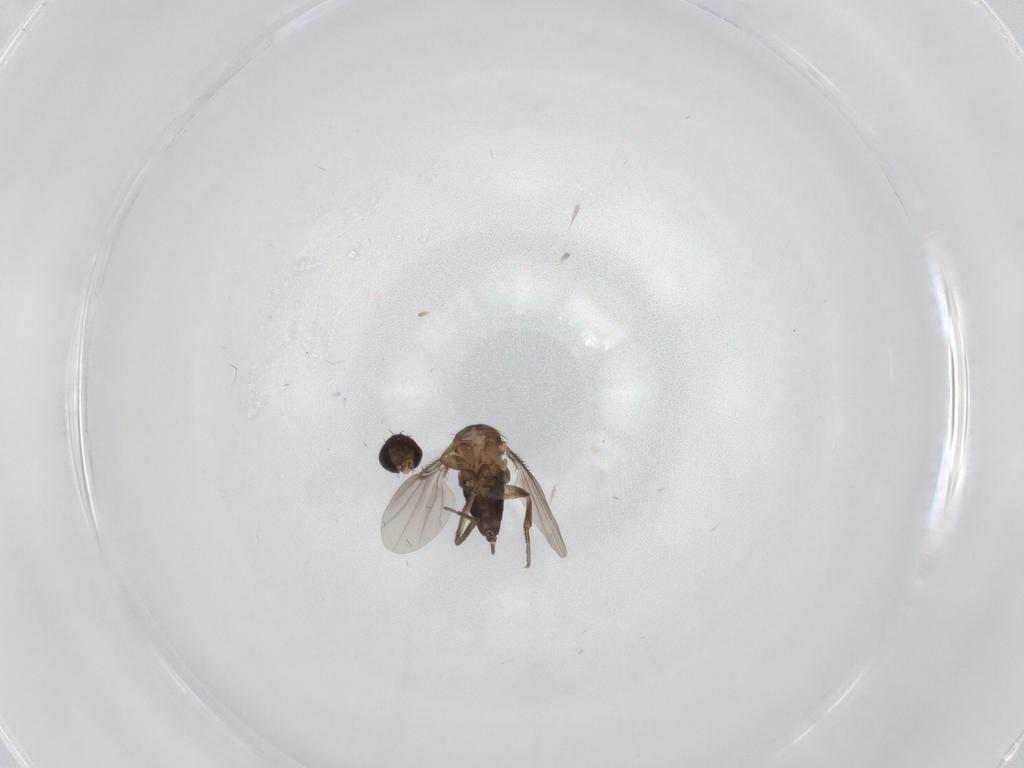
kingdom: Animalia
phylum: Arthropoda
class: Insecta
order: Diptera
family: Phoridae
